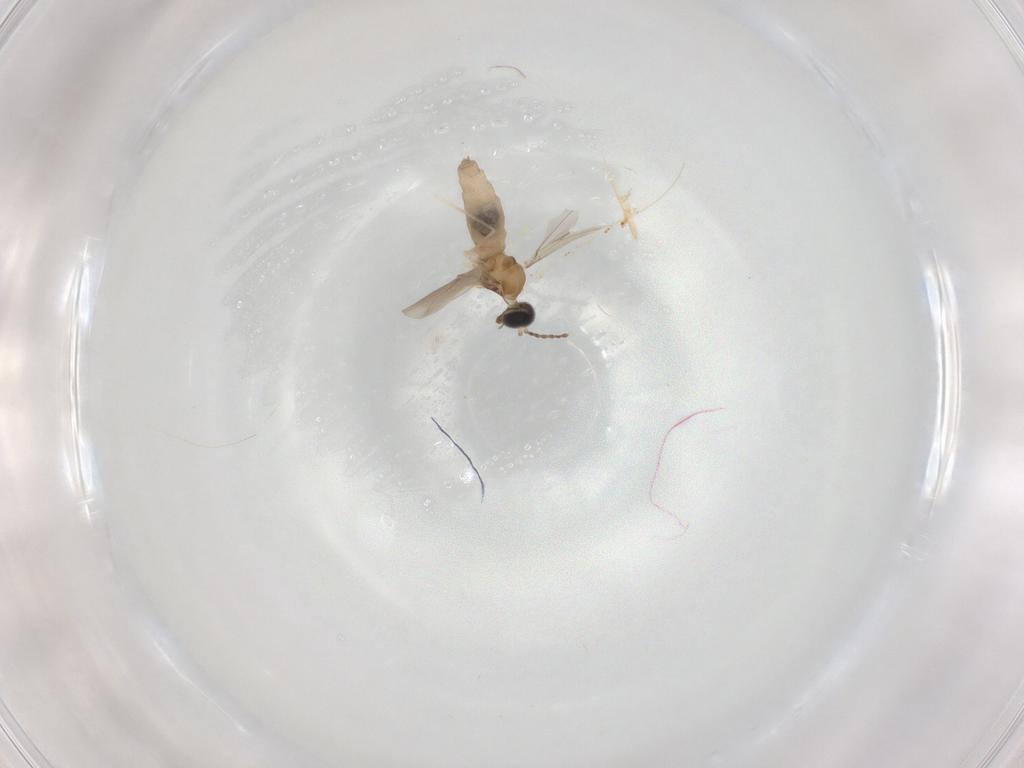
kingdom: Animalia
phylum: Arthropoda
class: Insecta
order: Diptera
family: Cecidomyiidae
